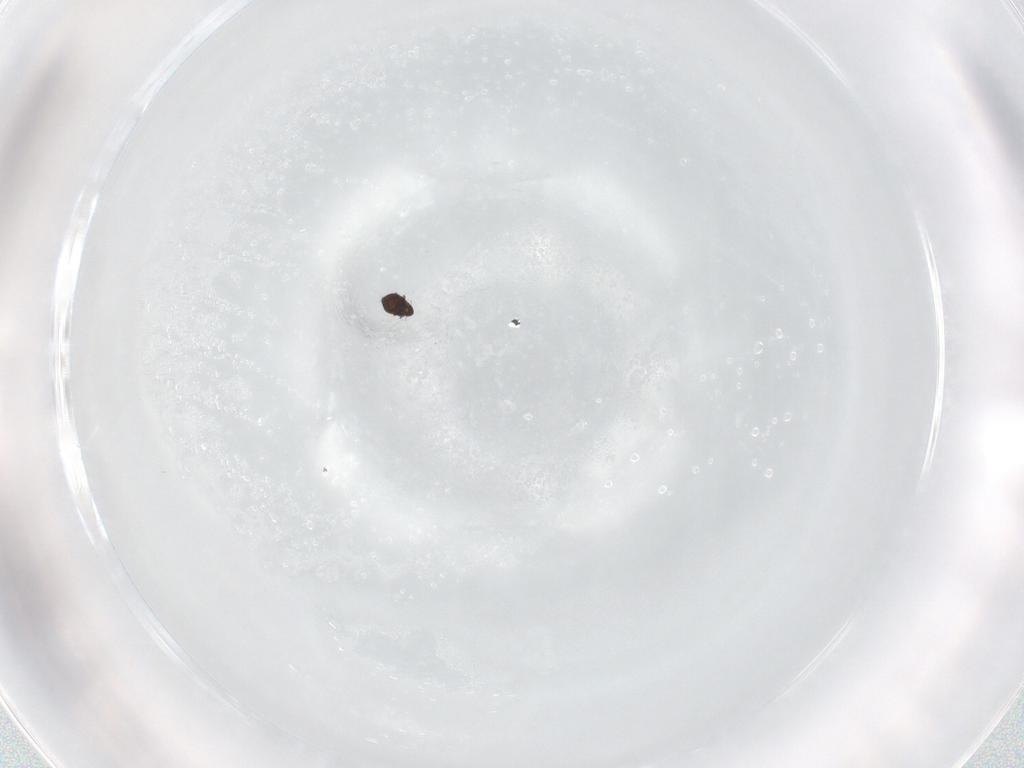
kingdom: Animalia
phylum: Arthropoda
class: Insecta
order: Coleoptera
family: Staphylinidae
